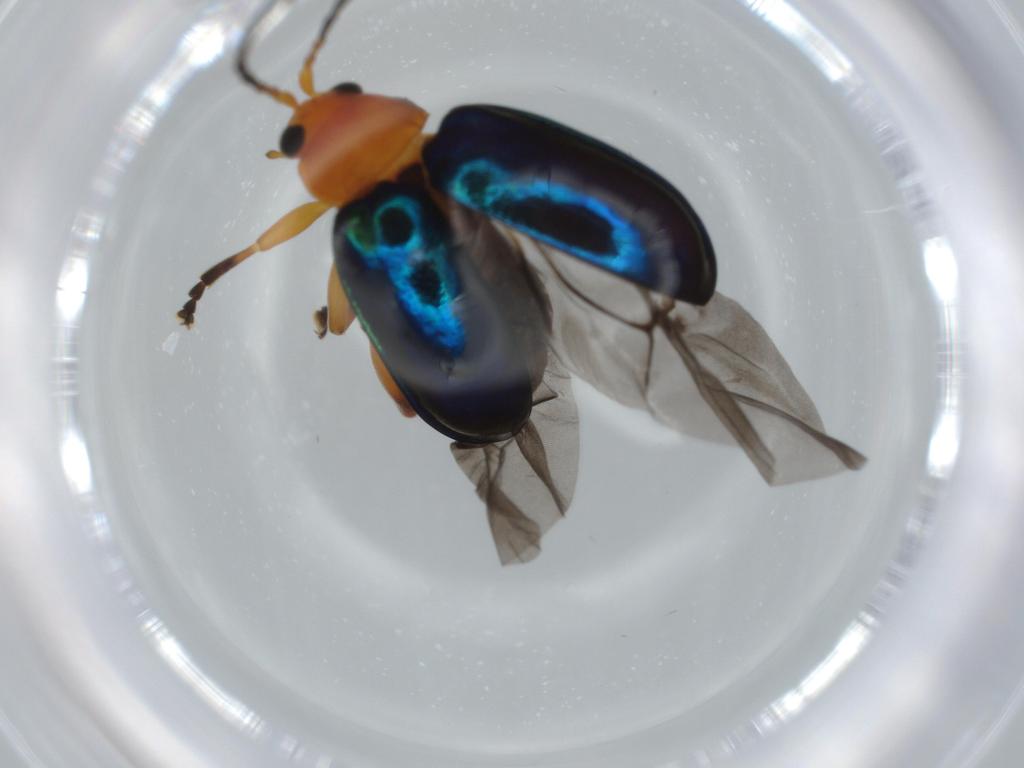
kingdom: Animalia
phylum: Arthropoda
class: Insecta
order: Coleoptera
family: Chrysomelidae
